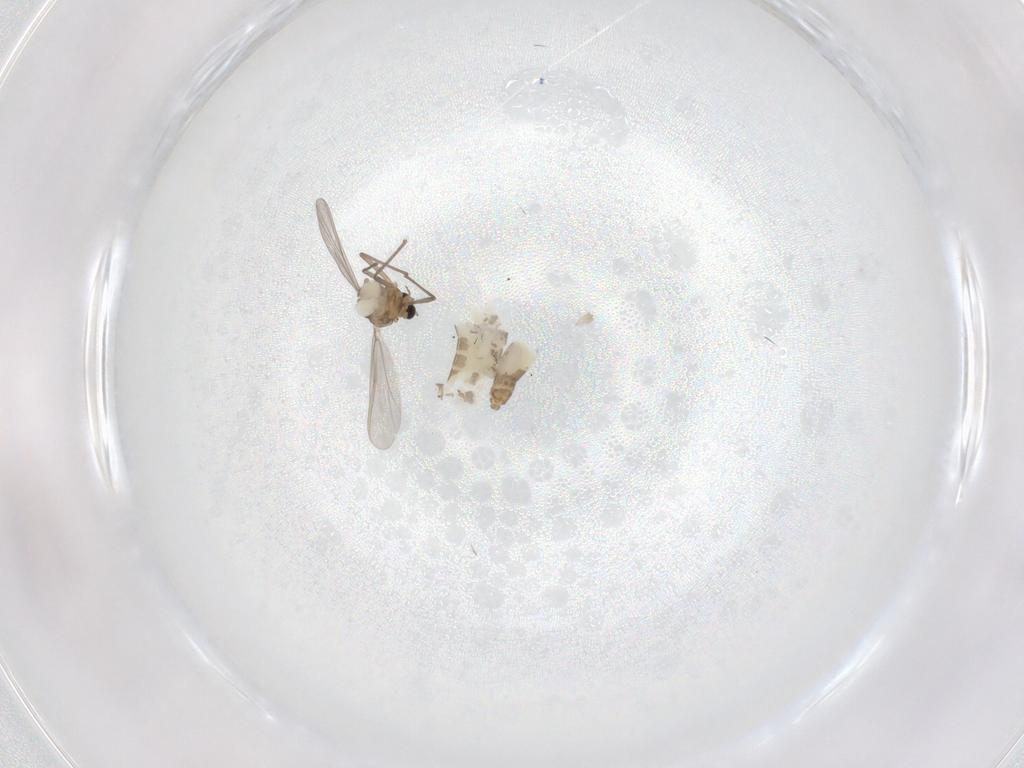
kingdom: Animalia
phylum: Arthropoda
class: Insecta
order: Diptera
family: Chironomidae
